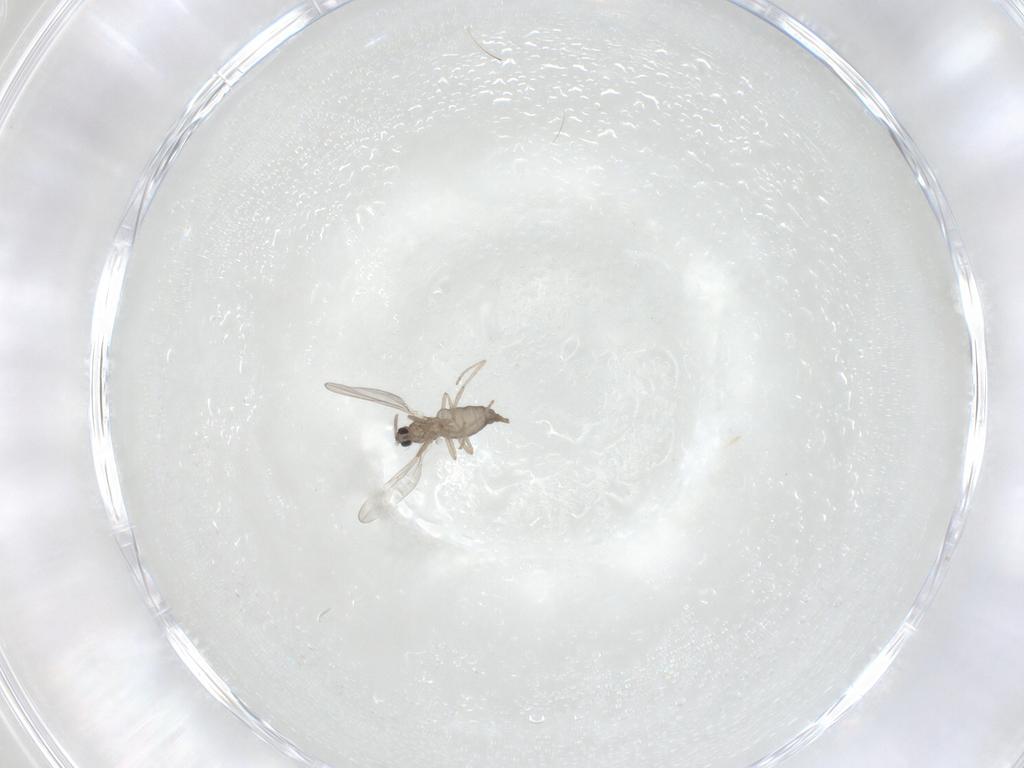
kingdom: Animalia
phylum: Arthropoda
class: Insecta
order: Diptera
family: Cecidomyiidae
